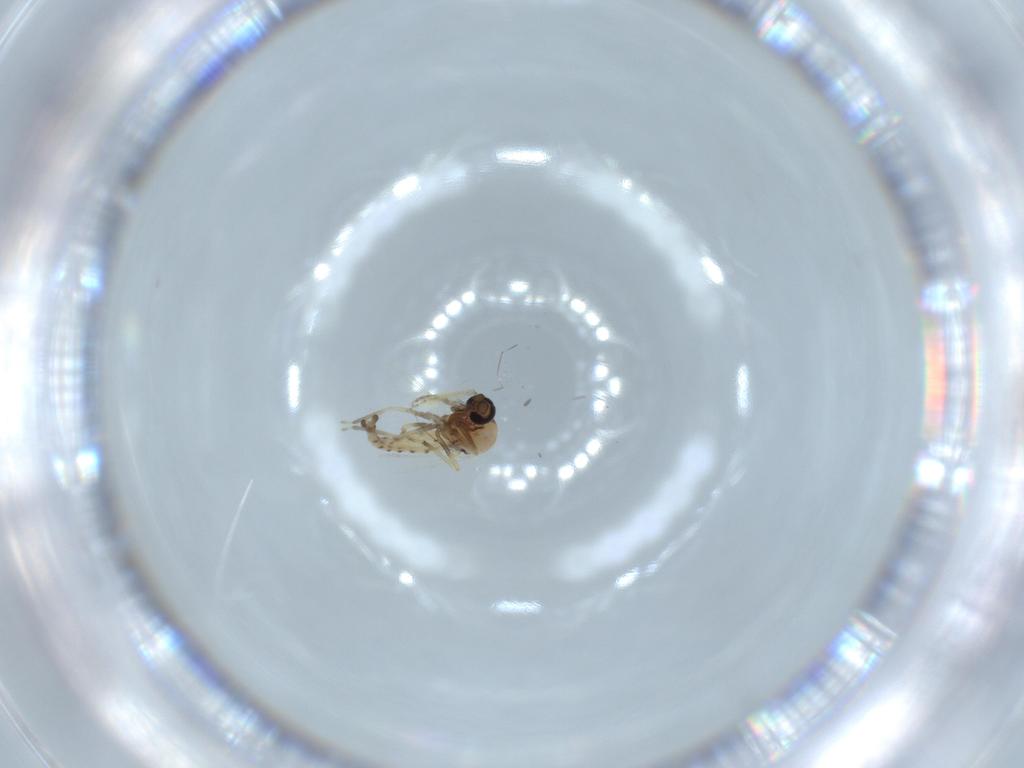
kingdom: Animalia
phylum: Arthropoda
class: Insecta
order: Diptera
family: Ceratopogonidae
